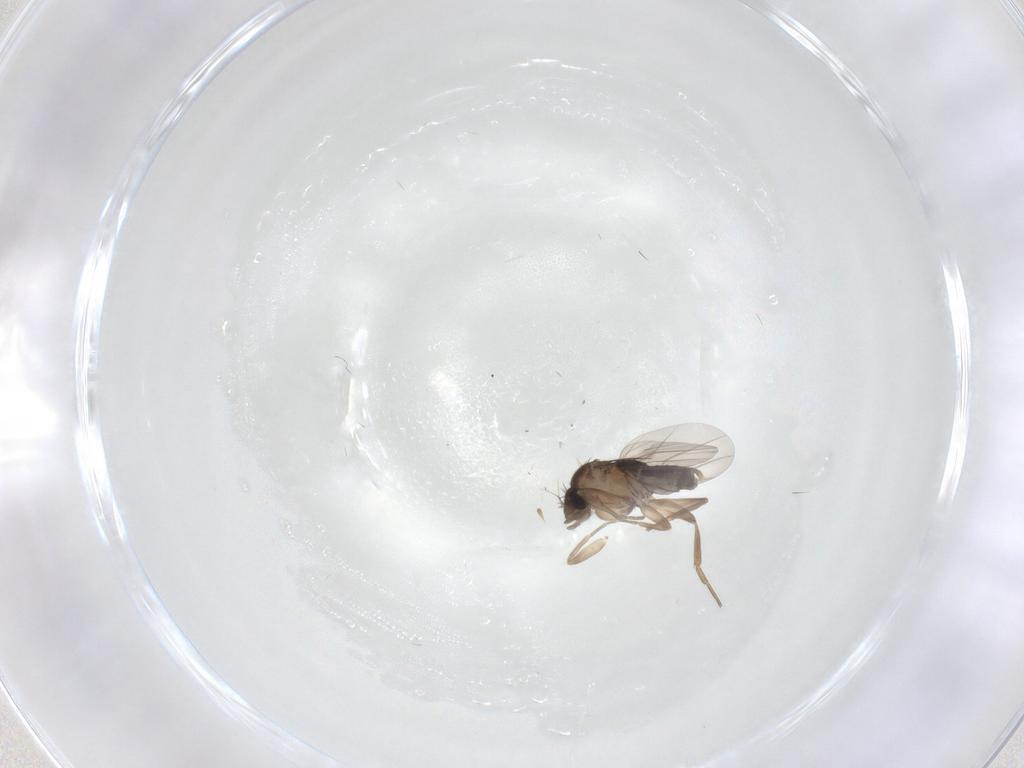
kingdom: Animalia
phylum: Arthropoda
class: Insecta
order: Diptera
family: Phoridae
